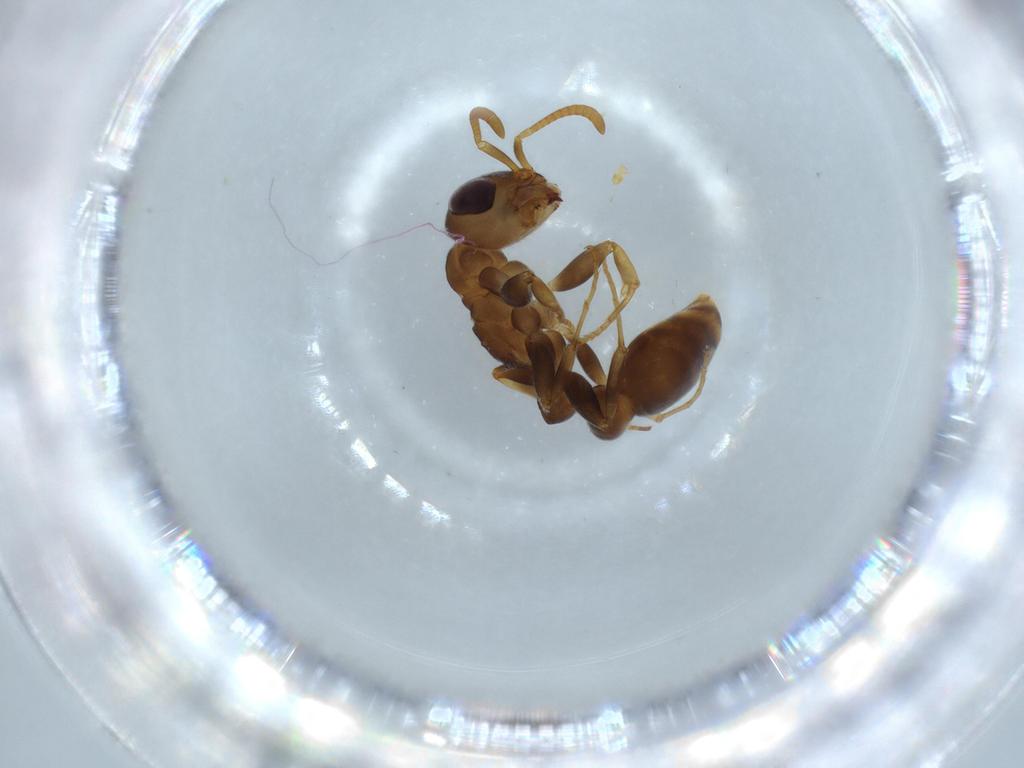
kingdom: Animalia
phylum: Arthropoda
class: Insecta
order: Hymenoptera
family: Formicidae
